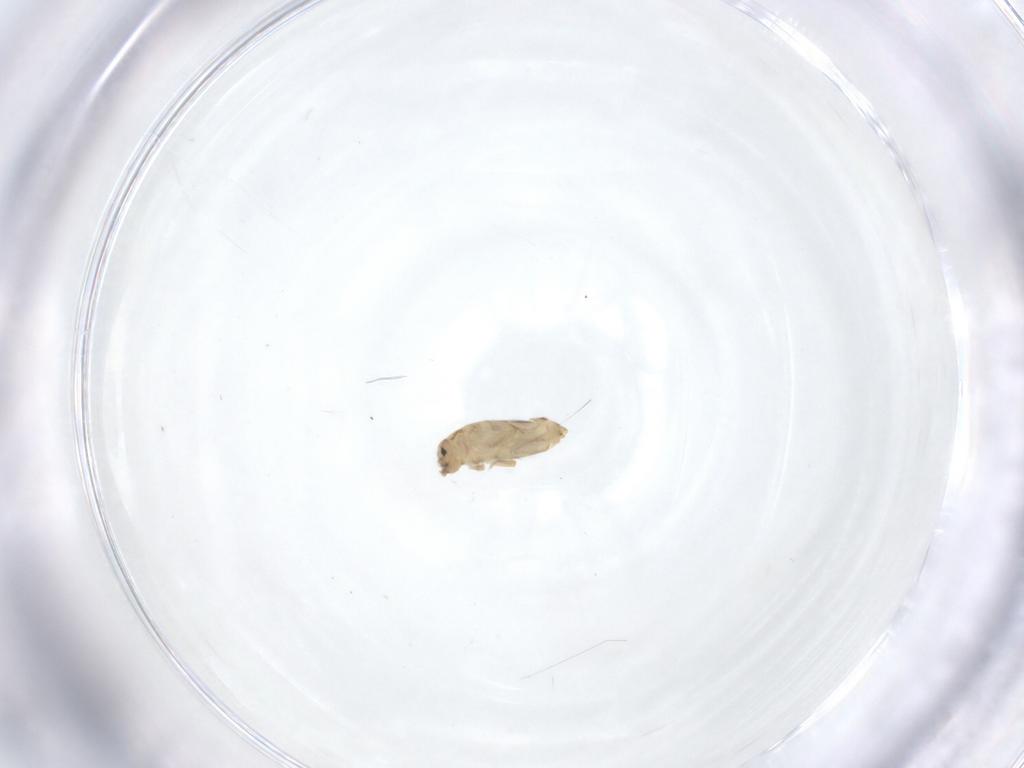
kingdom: Animalia
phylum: Arthropoda
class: Collembola
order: Entomobryomorpha
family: Entomobryidae
